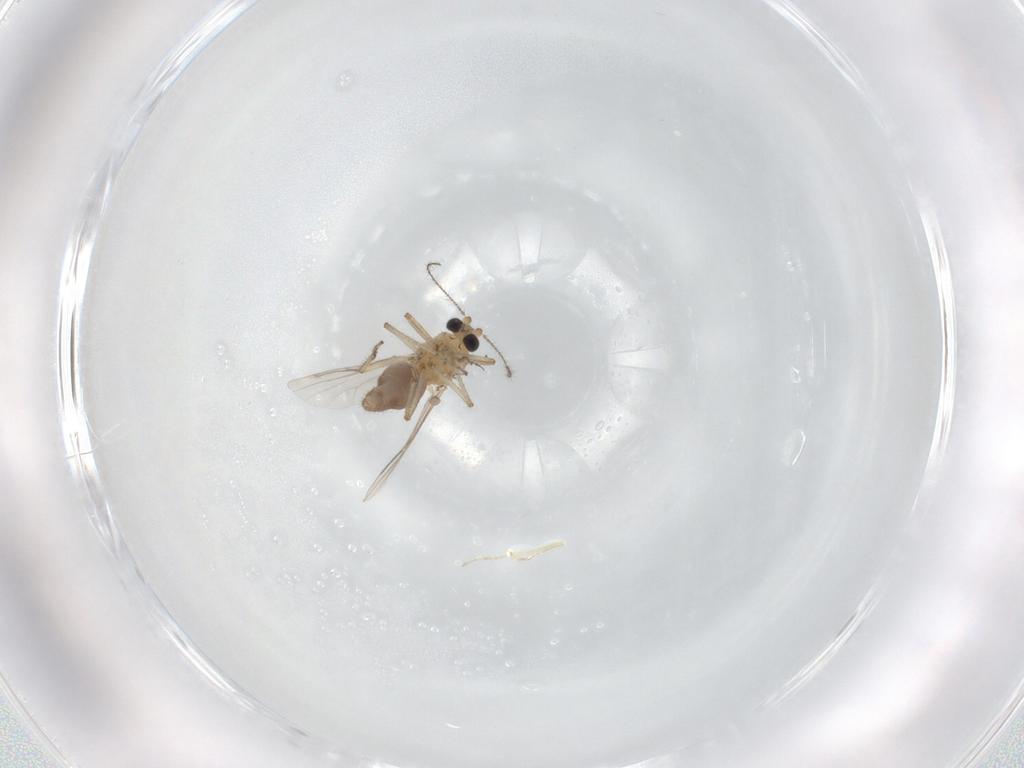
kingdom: Animalia
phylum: Arthropoda
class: Insecta
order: Diptera
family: Chironomidae
